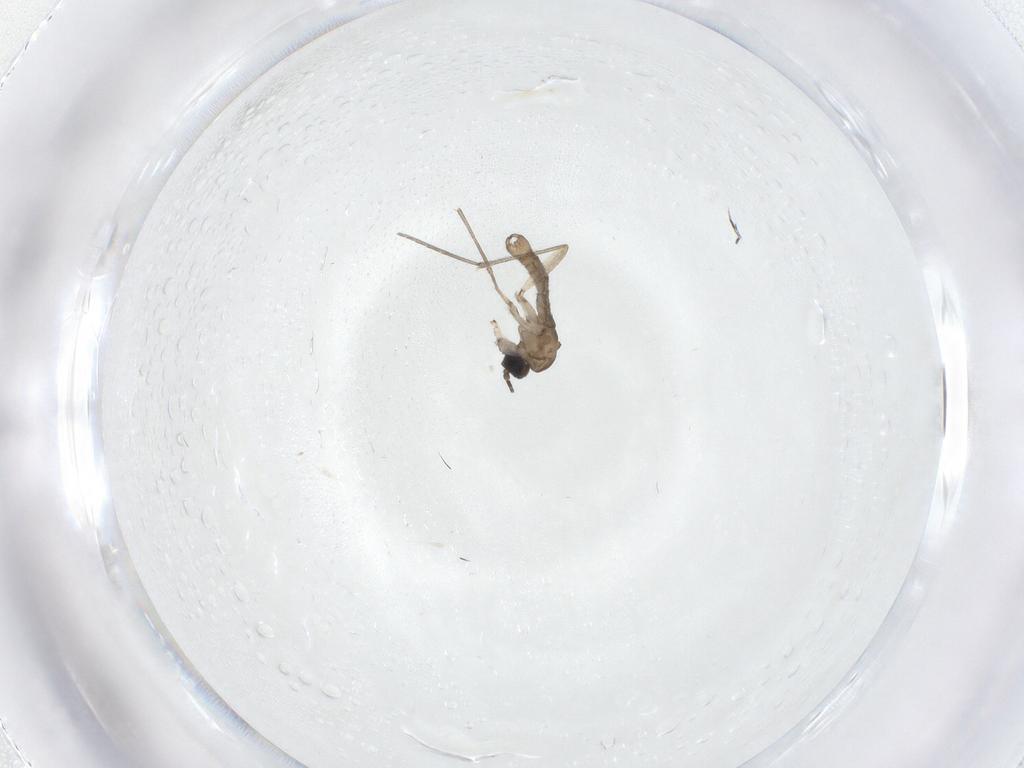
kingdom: Animalia
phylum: Arthropoda
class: Insecta
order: Diptera
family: Sciaridae
